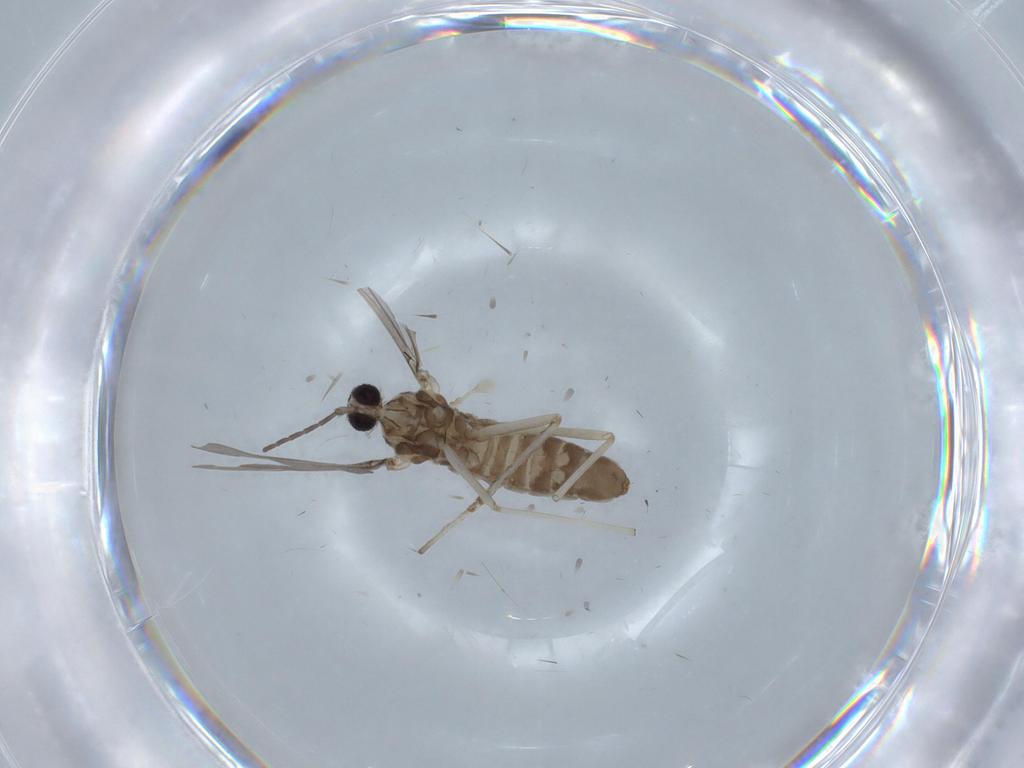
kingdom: Animalia
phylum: Arthropoda
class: Insecta
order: Diptera
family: Cecidomyiidae
